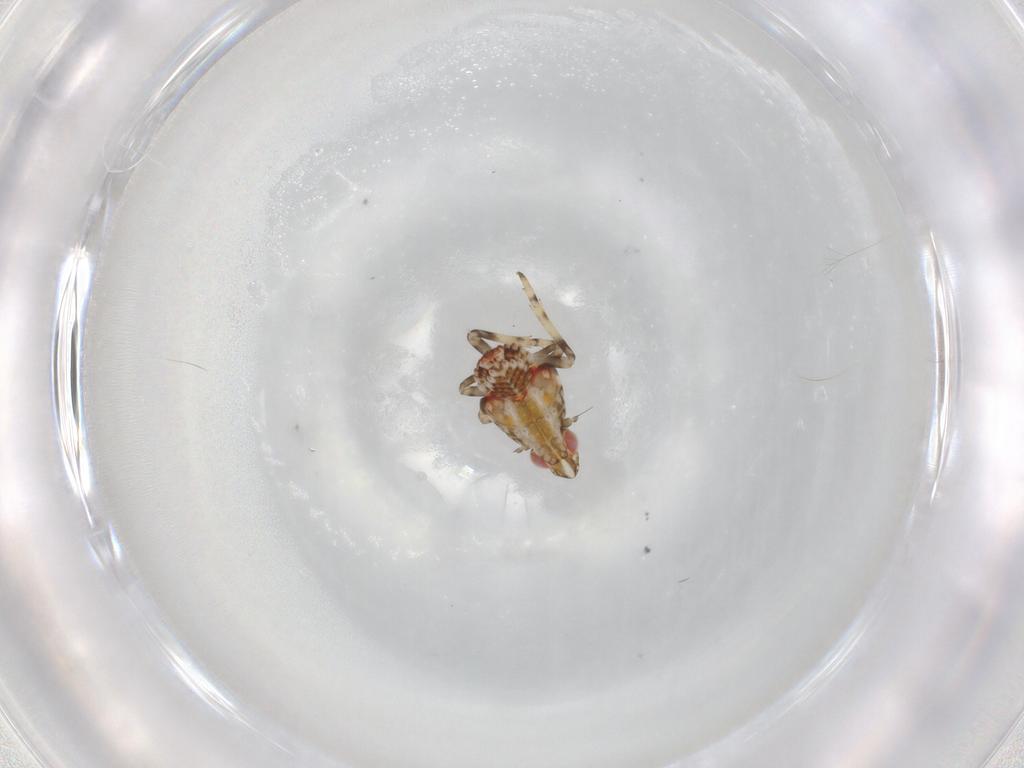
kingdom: Animalia
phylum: Arthropoda
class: Insecta
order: Hemiptera
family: Tropiduchidae
